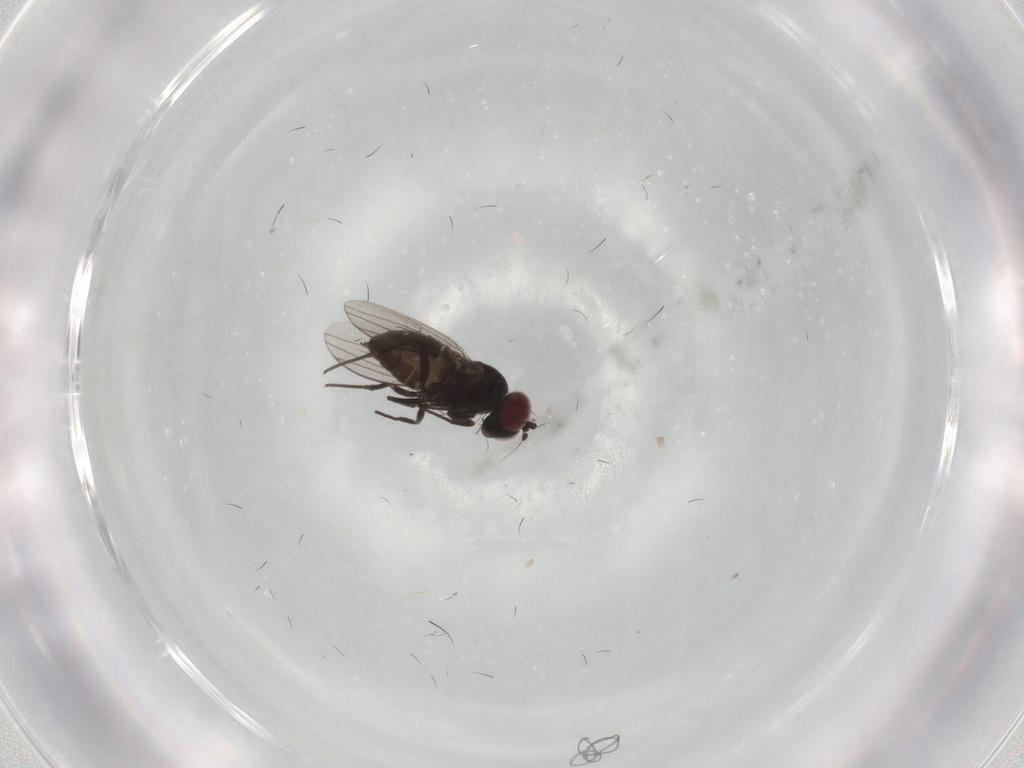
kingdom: Animalia
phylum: Arthropoda
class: Insecta
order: Diptera
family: Dolichopodidae
